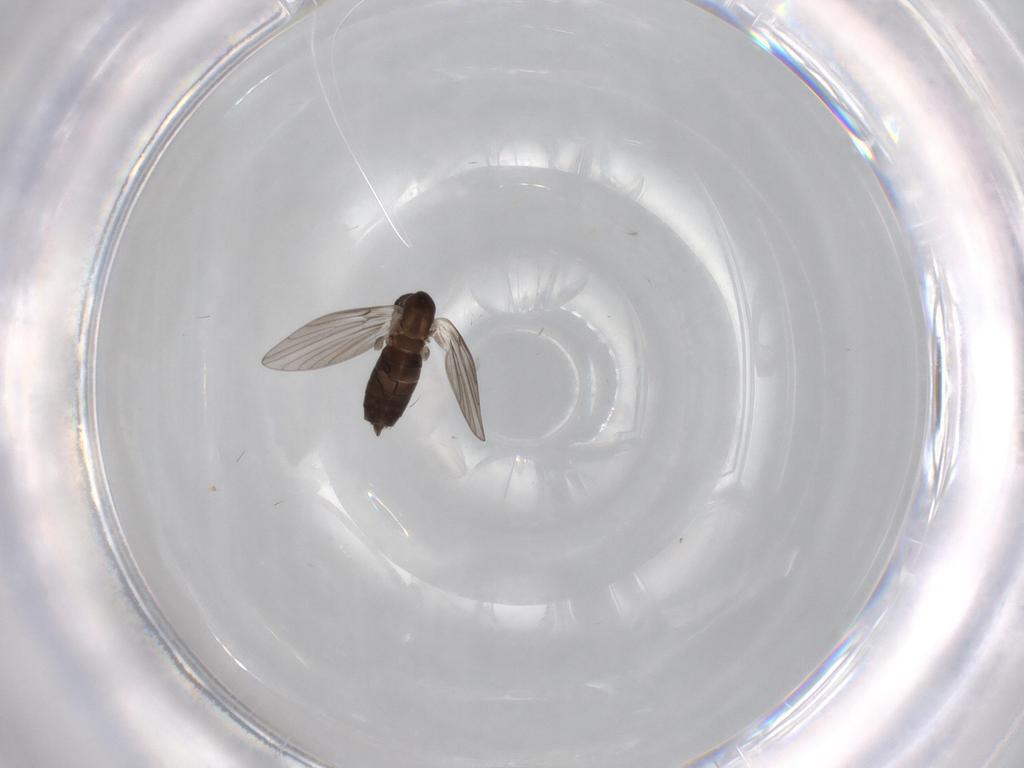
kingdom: Animalia
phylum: Arthropoda
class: Insecta
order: Diptera
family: Psychodidae
